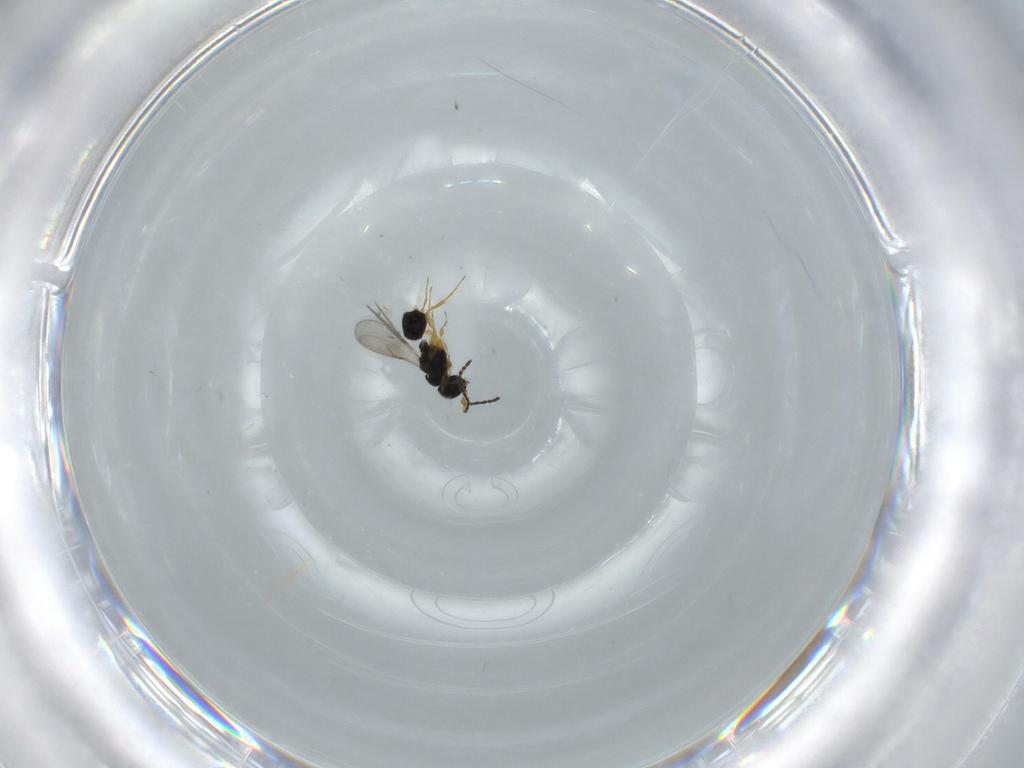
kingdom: Animalia
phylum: Arthropoda
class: Insecta
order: Hymenoptera
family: Scelionidae
